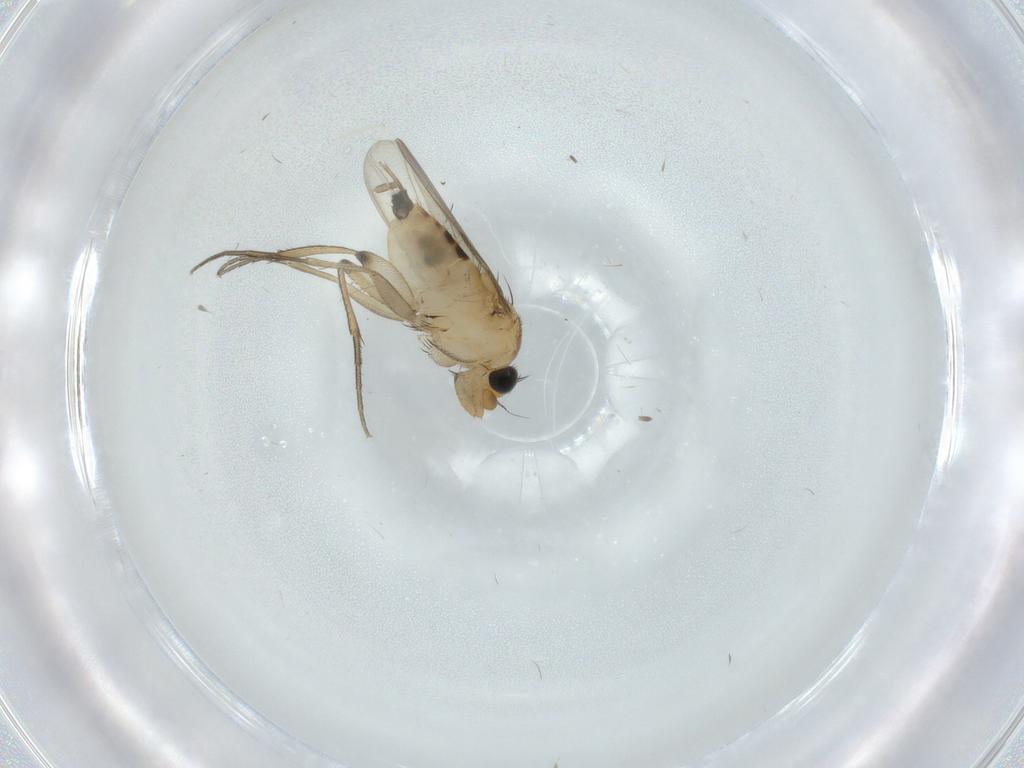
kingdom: Animalia
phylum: Arthropoda
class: Insecta
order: Diptera
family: Phoridae
